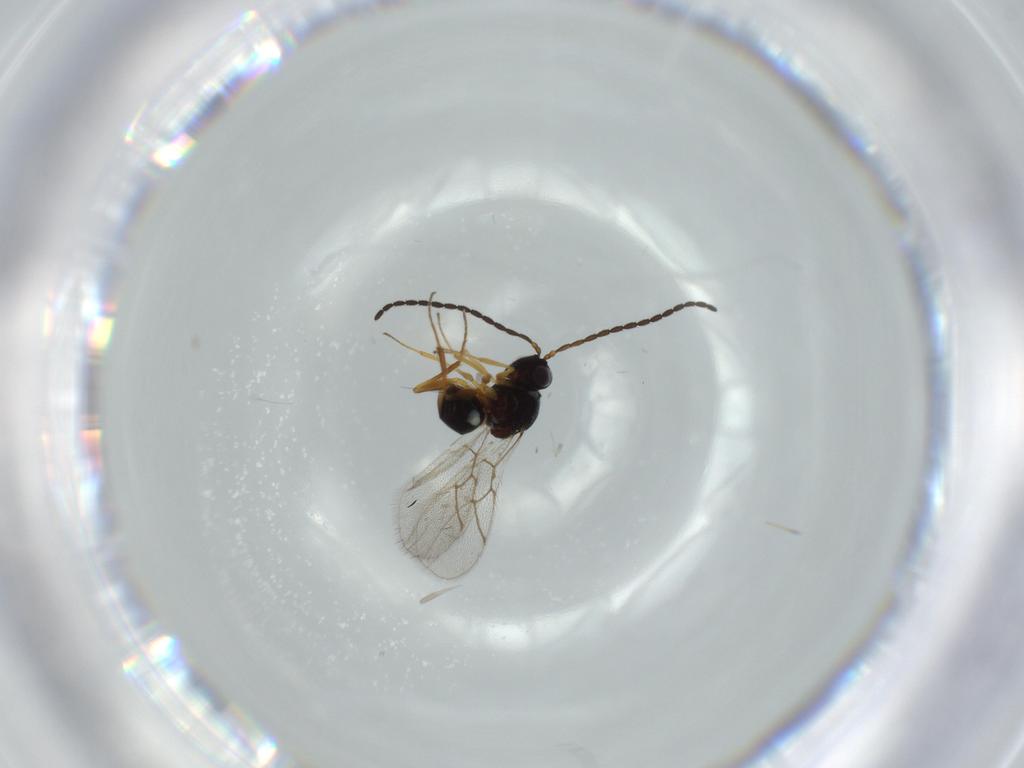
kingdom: Animalia
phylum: Arthropoda
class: Insecta
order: Hymenoptera
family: Figitidae
